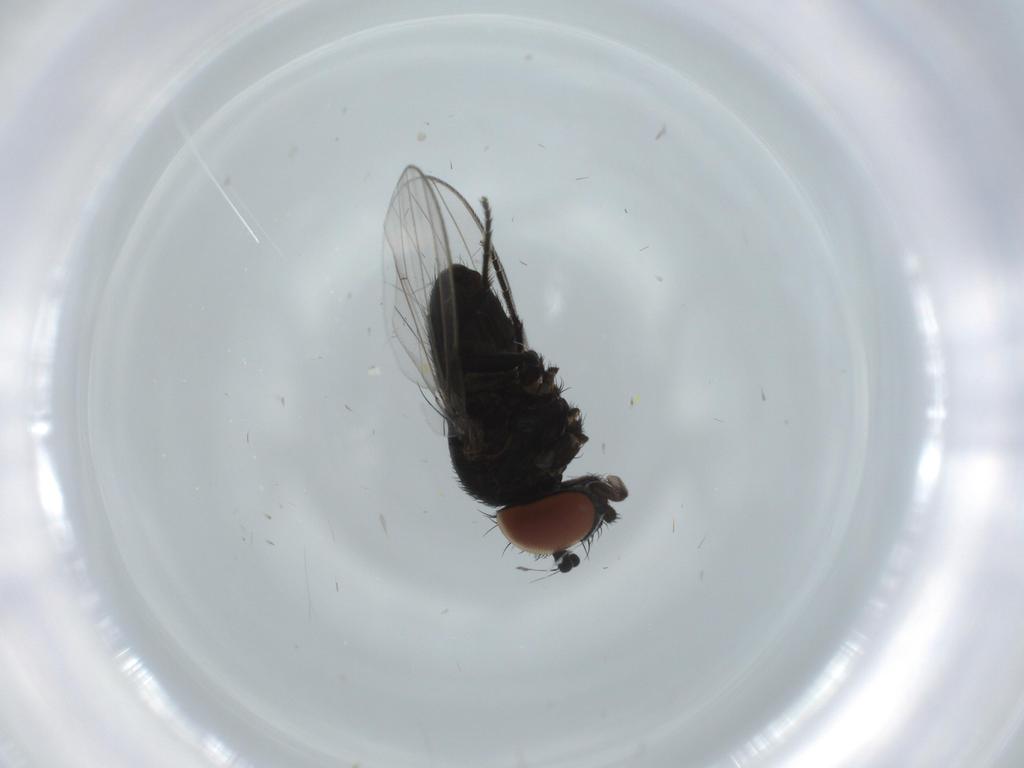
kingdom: Animalia
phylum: Arthropoda
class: Insecta
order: Diptera
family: Milichiidae
